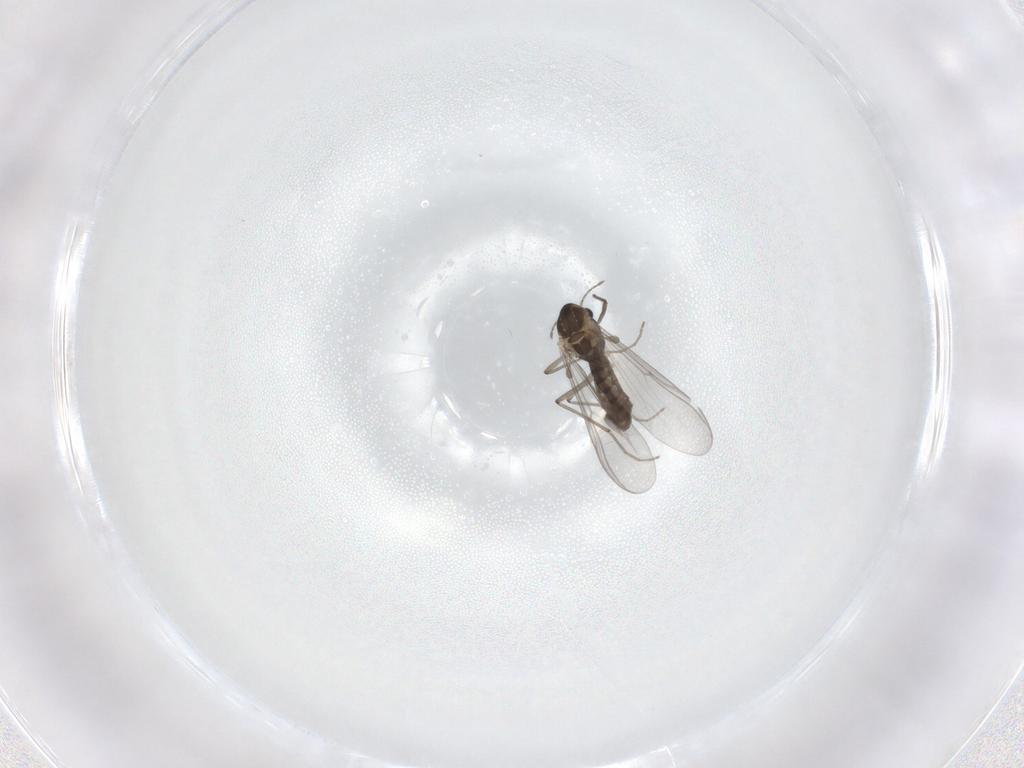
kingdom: Animalia
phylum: Arthropoda
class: Insecta
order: Diptera
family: Chironomidae
